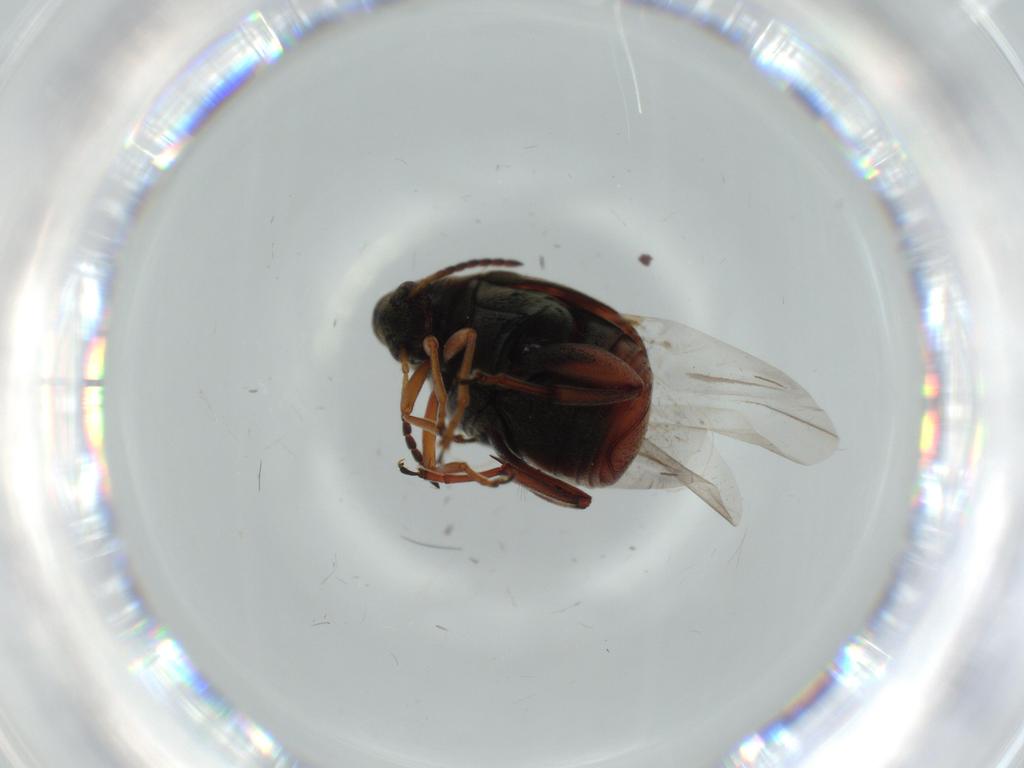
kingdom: Animalia
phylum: Arthropoda
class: Insecta
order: Coleoptera
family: Chrysomelidae
